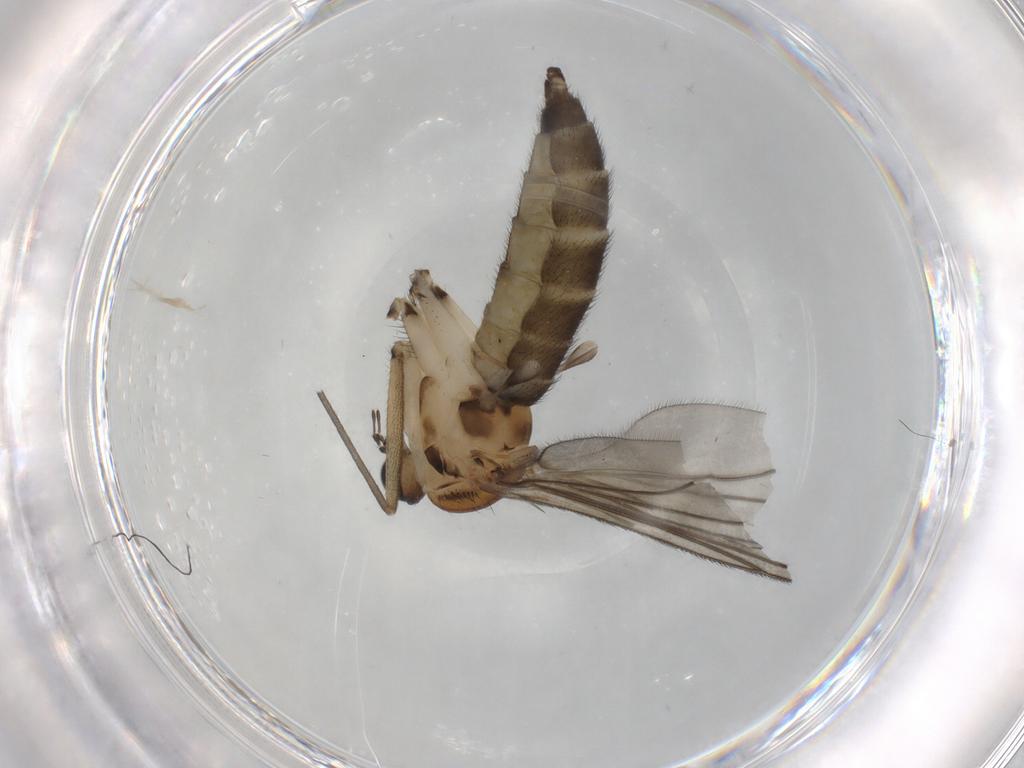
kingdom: Animalia
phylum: Arthropoda
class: Insecta
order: Diptera
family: Sciaridae
